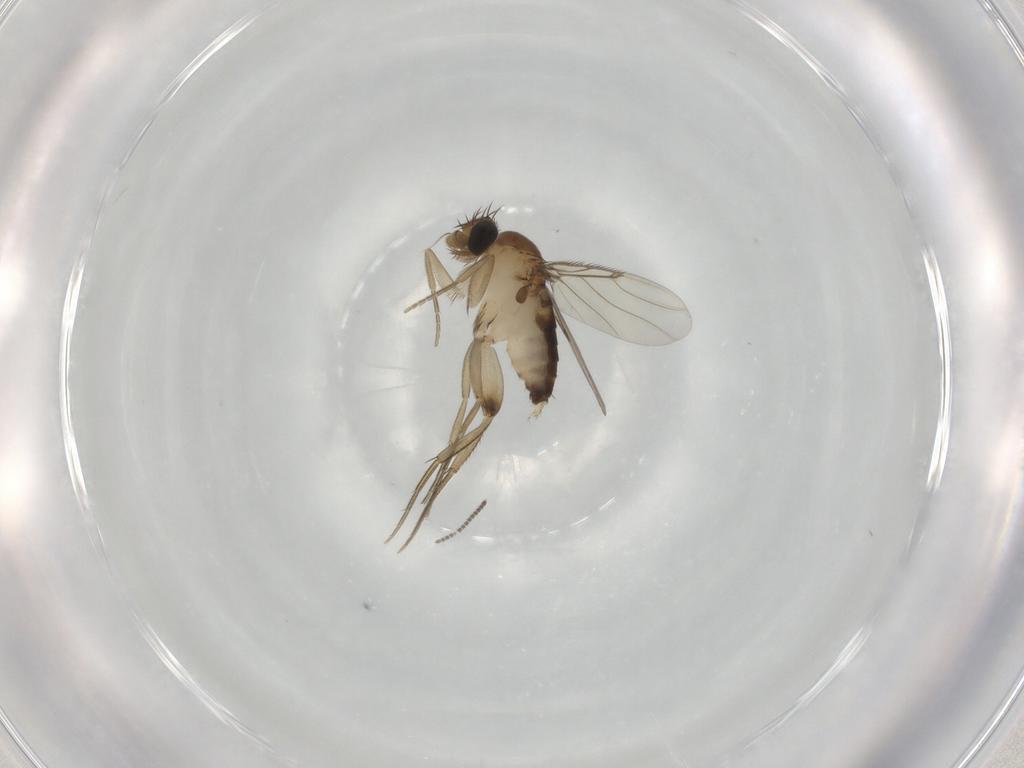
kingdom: Animalia
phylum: Arthropoda
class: Insecta
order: Diptera
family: Phoridae
